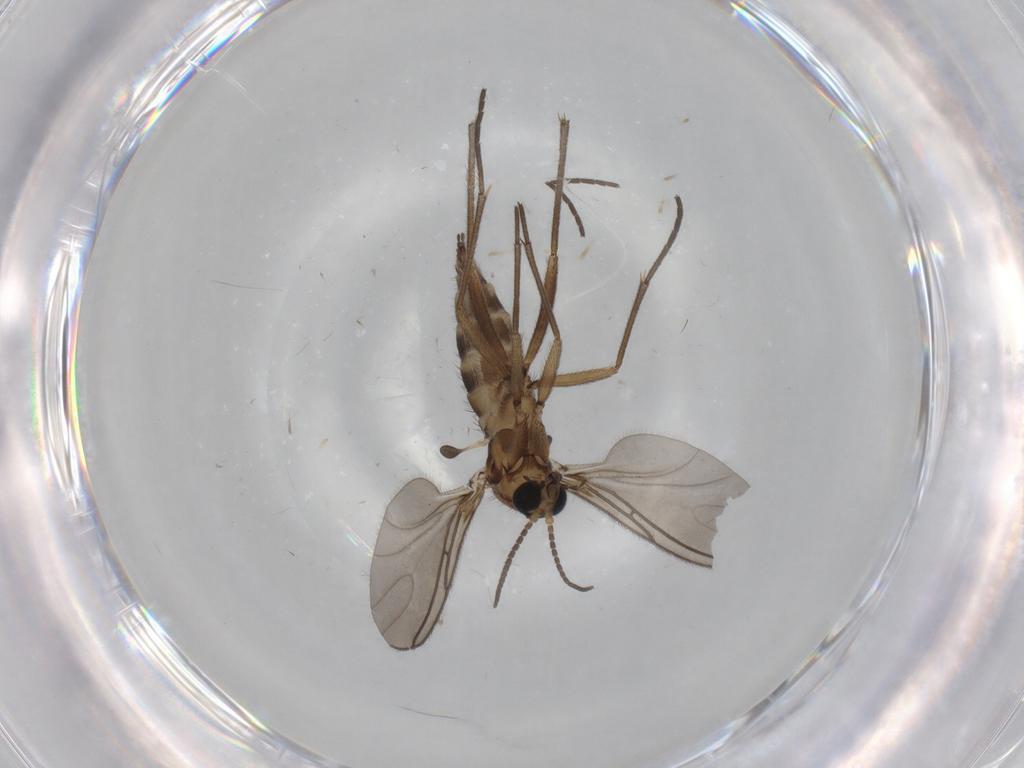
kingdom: Animalia
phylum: Arthropoda
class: Insecta
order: Diptera
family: Sciaridae
